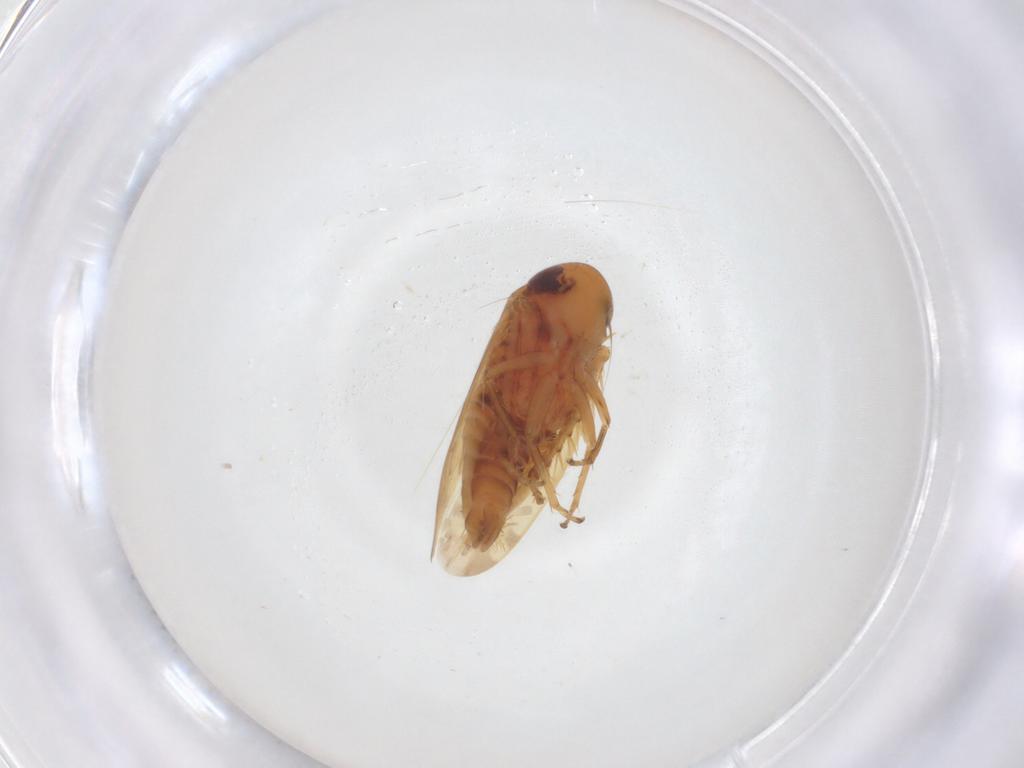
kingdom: Animalia
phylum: Arthropoda
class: Insecta
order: Hemiptera
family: Cicadellidae
